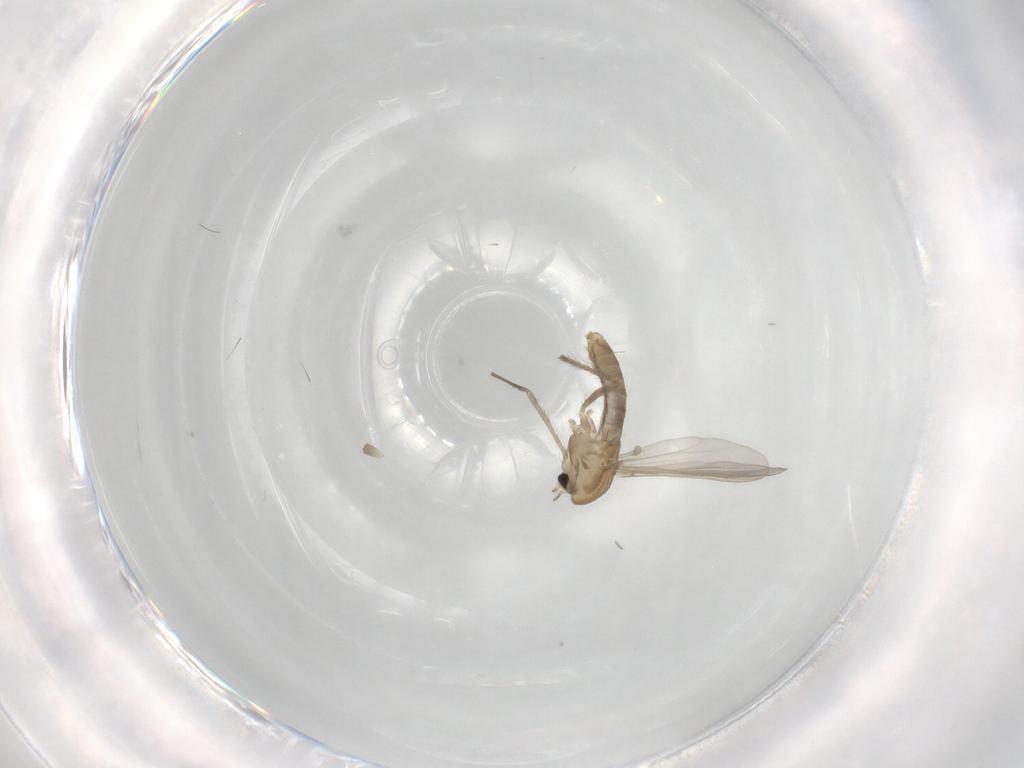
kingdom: Animalia
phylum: Arthropoda
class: Insecta
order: Diptera
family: Chironomidae
